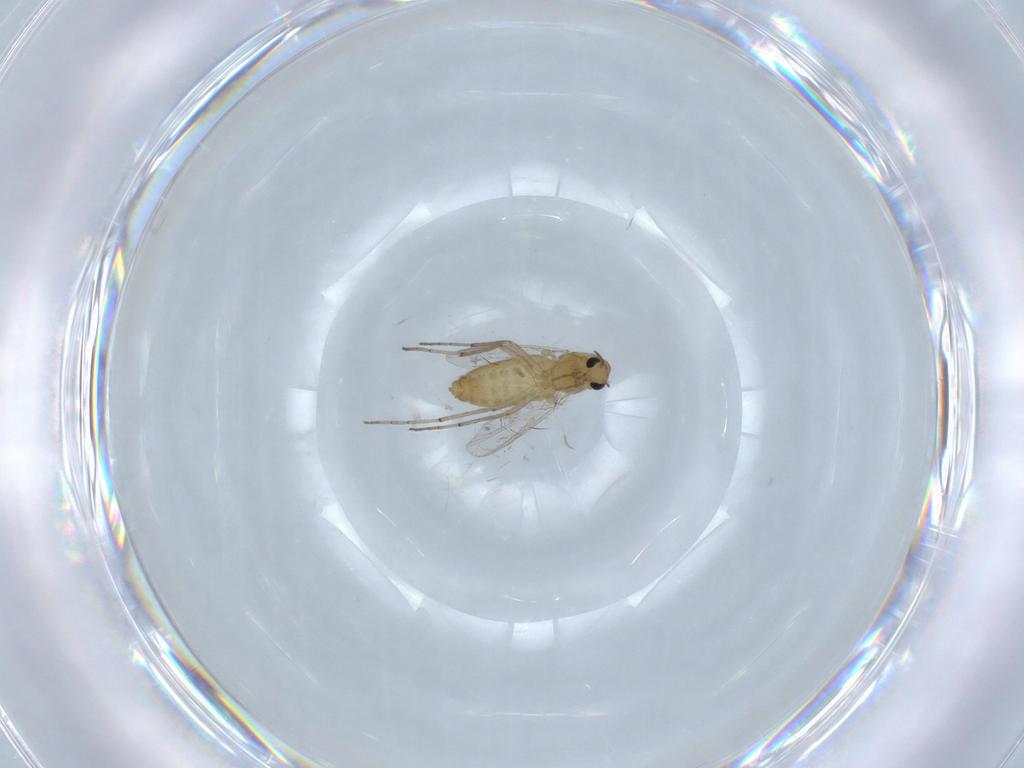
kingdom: Animalia
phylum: Arthropoda
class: Insecta
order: Diptera
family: Chironomidae
